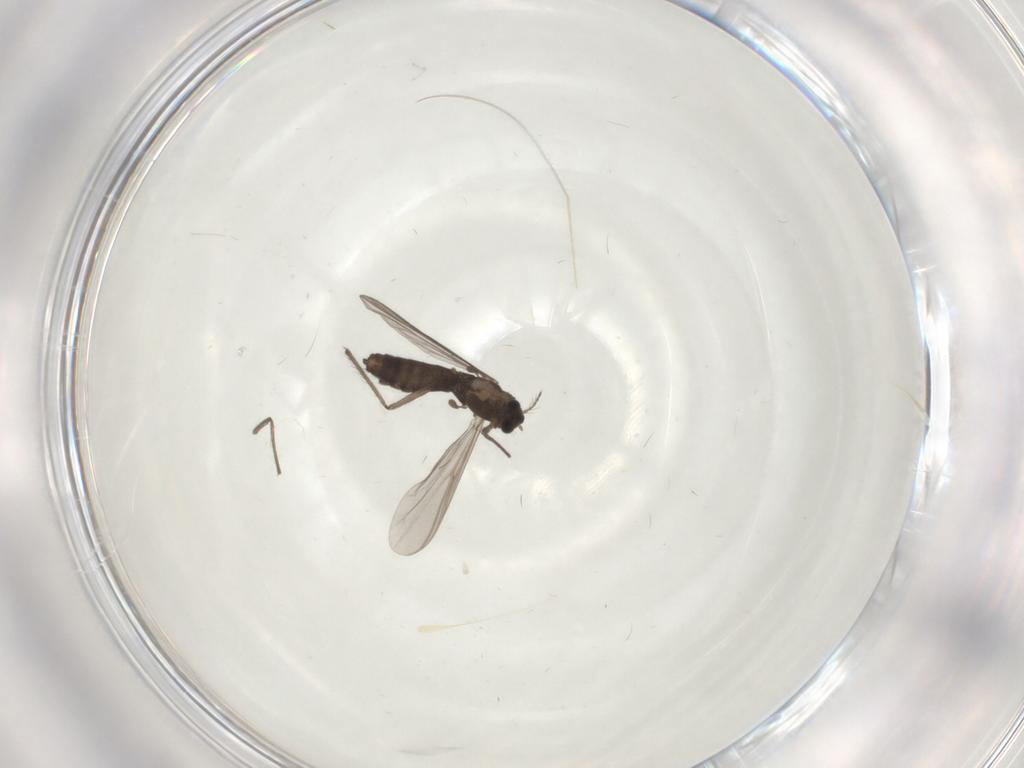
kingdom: Animalia
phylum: Arthropoda
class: Insecta
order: Diptera
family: Chironomidae
